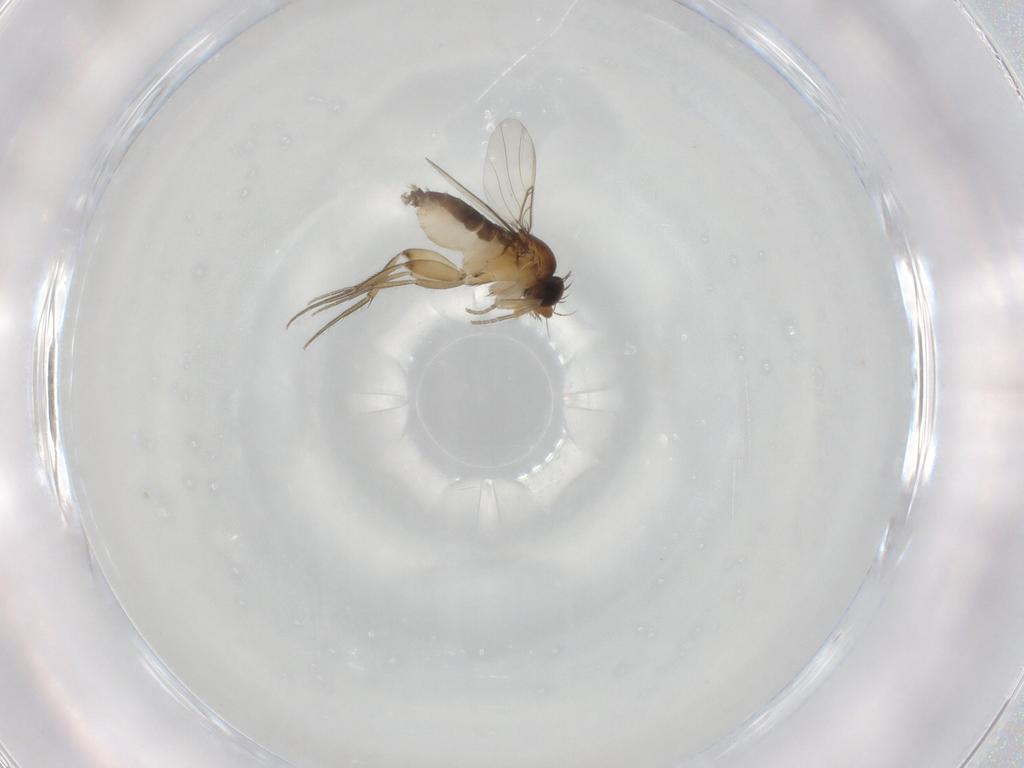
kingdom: Animalia
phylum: Arthropoda
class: Insecta
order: Diptera
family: Phoridae
